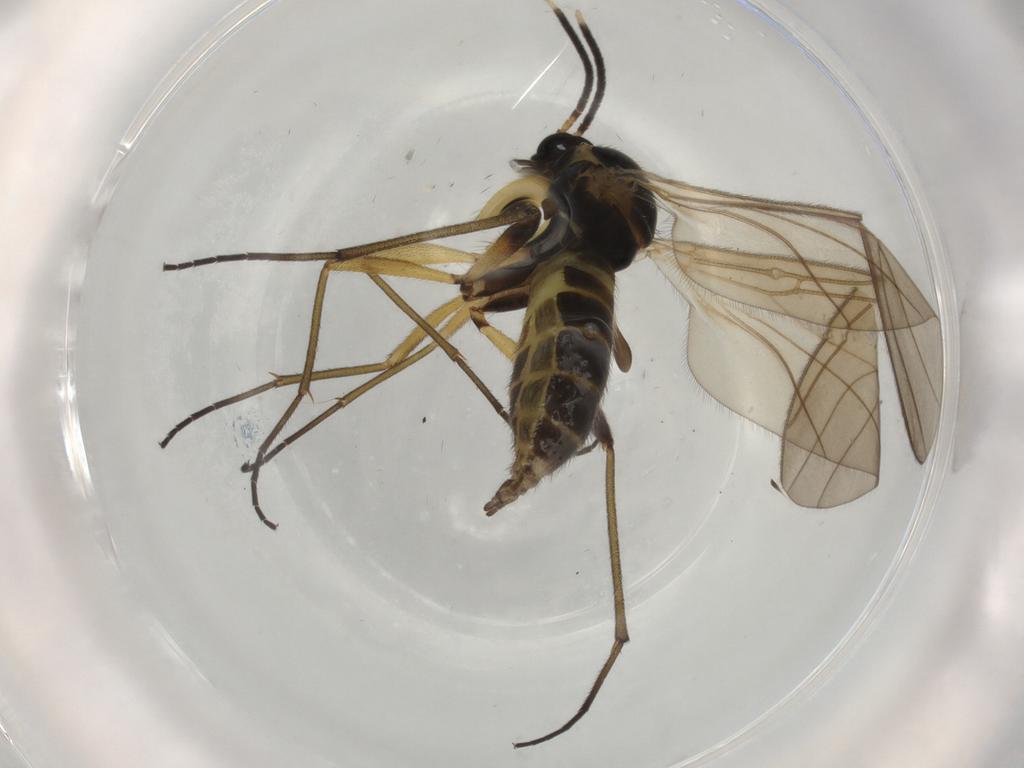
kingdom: Animalia
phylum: Arthropoda
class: Insecta
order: Diptera
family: Sciaridae
